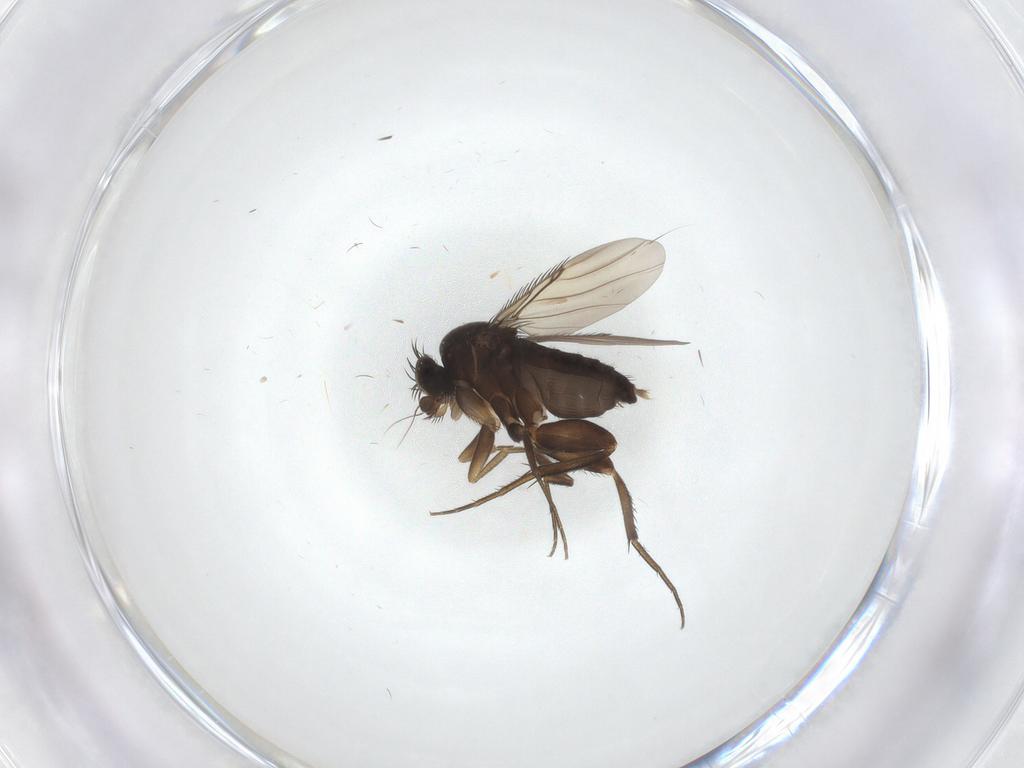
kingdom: Animalia
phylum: Arthropoda
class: Insecta
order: Diptera
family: Phoridae
